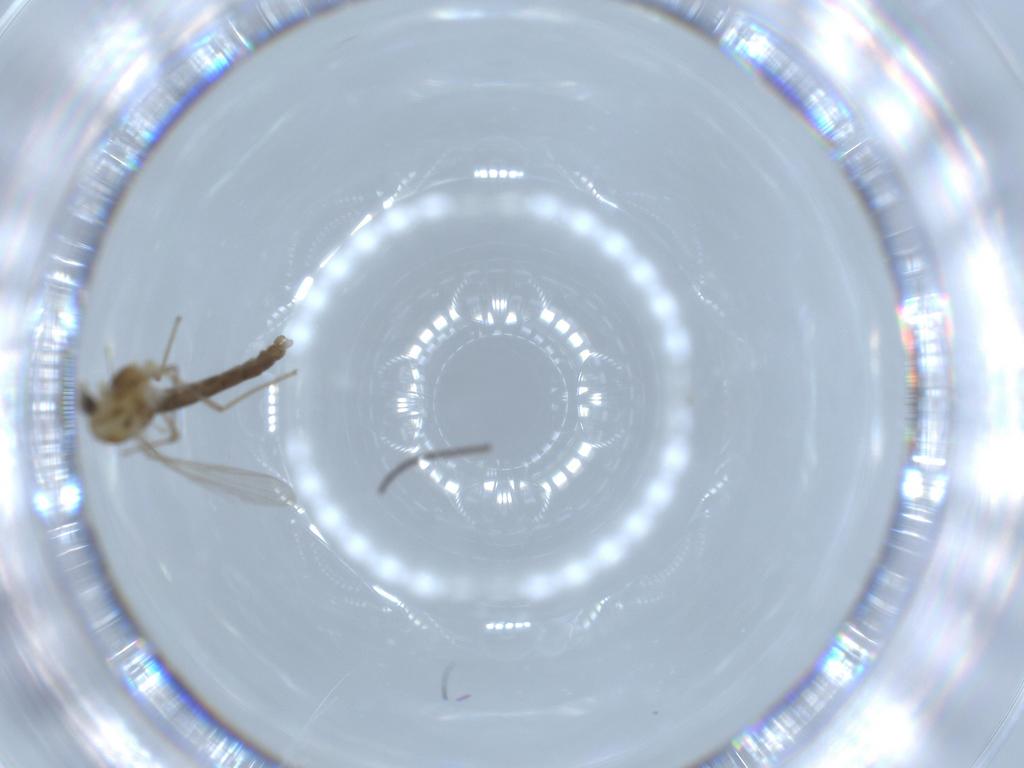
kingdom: Animalia
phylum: Arthropoda
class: Insecta
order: Diptera
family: Chironomidae
